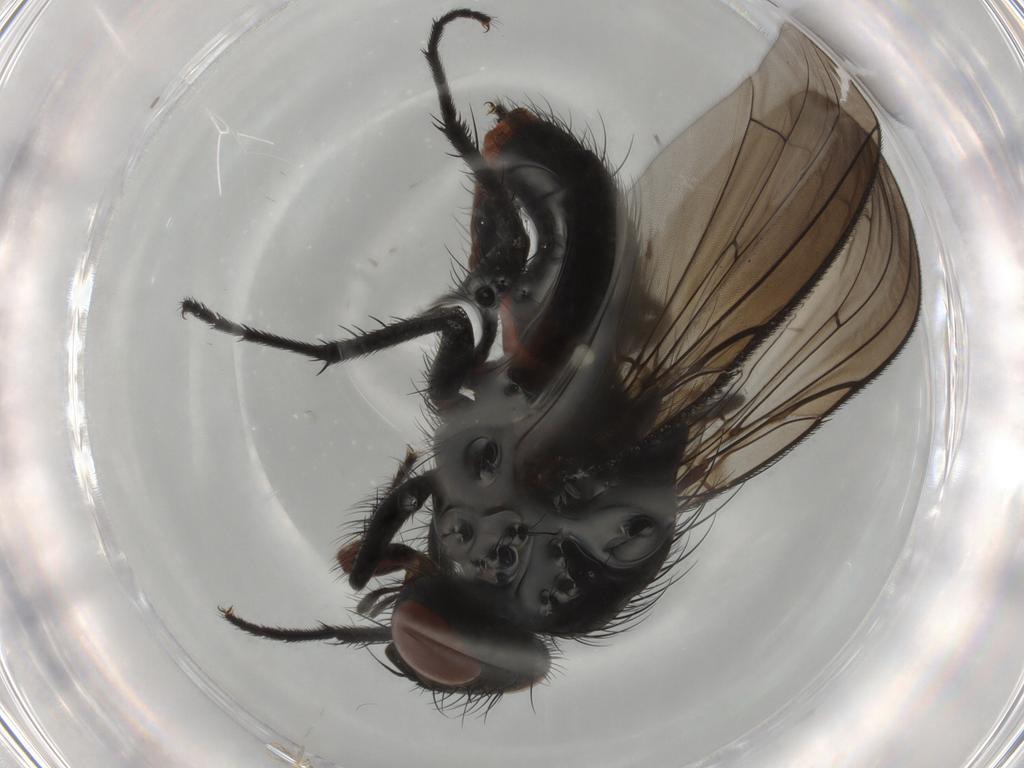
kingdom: Animalia
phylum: Arthropoda
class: Insecta
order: Diptera
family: Anthomyiidae
